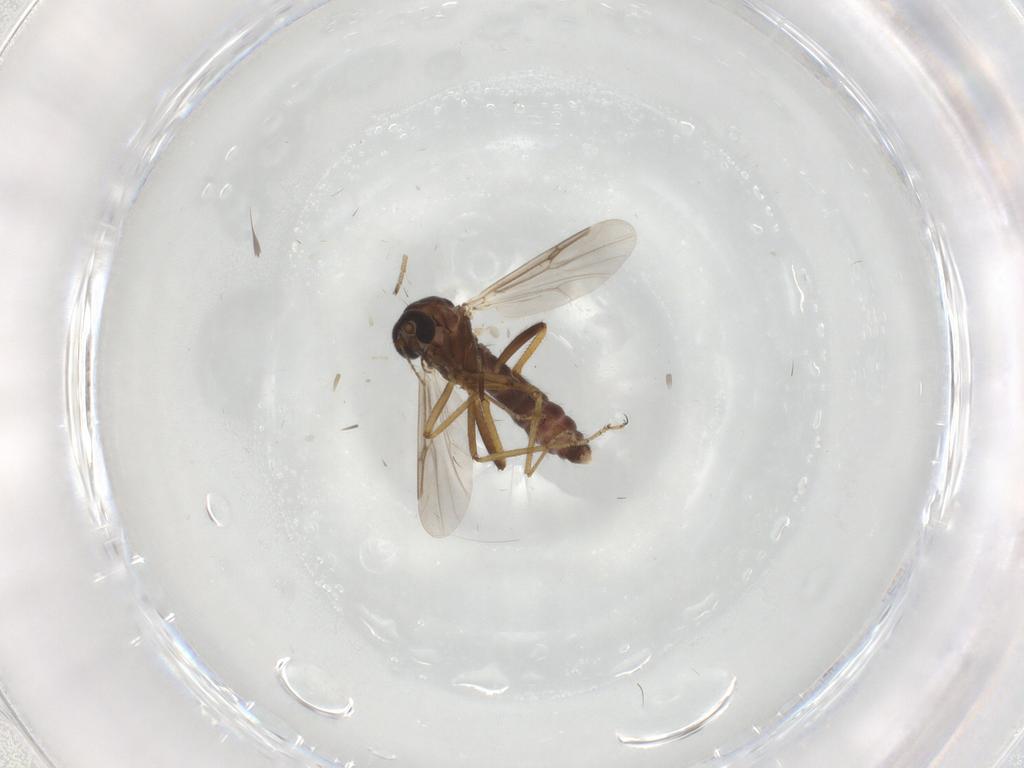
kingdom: Animalia
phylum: Arthropoda
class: Insecta
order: Diptera
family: Chironomidae
